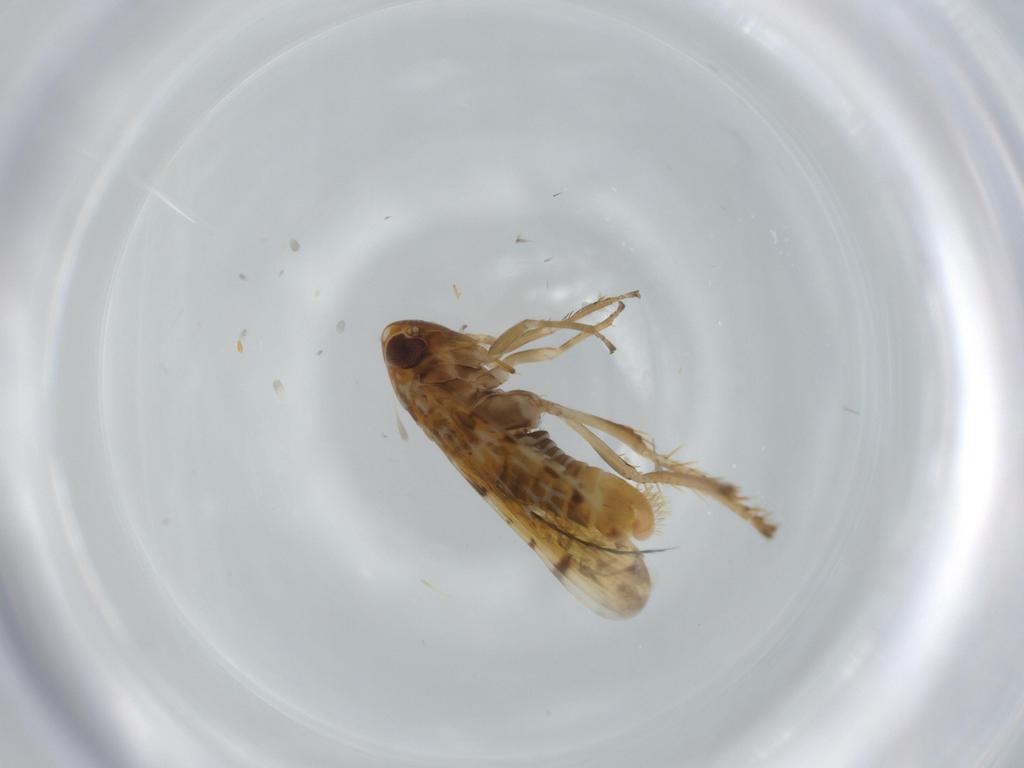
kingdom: Animalia
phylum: Arthropoda
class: Insecta
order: Hemiptera
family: Cicadellidae
